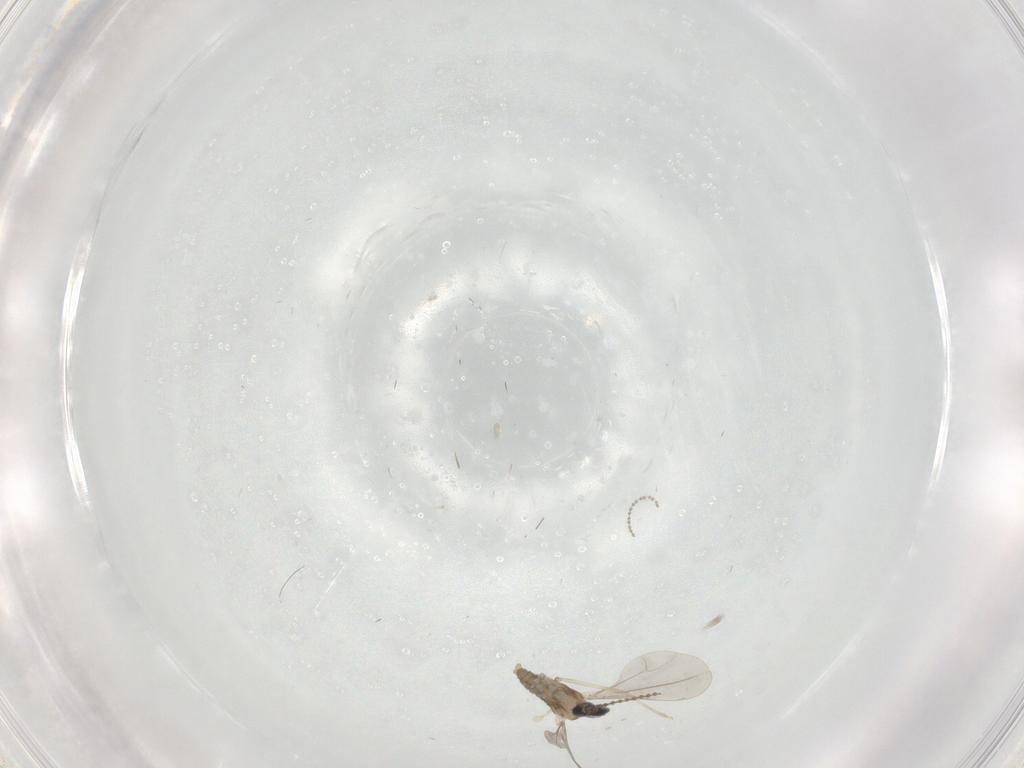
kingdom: Animalia
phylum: Arthropoda
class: Insecta
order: Diptera
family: Cecidomyiidae
